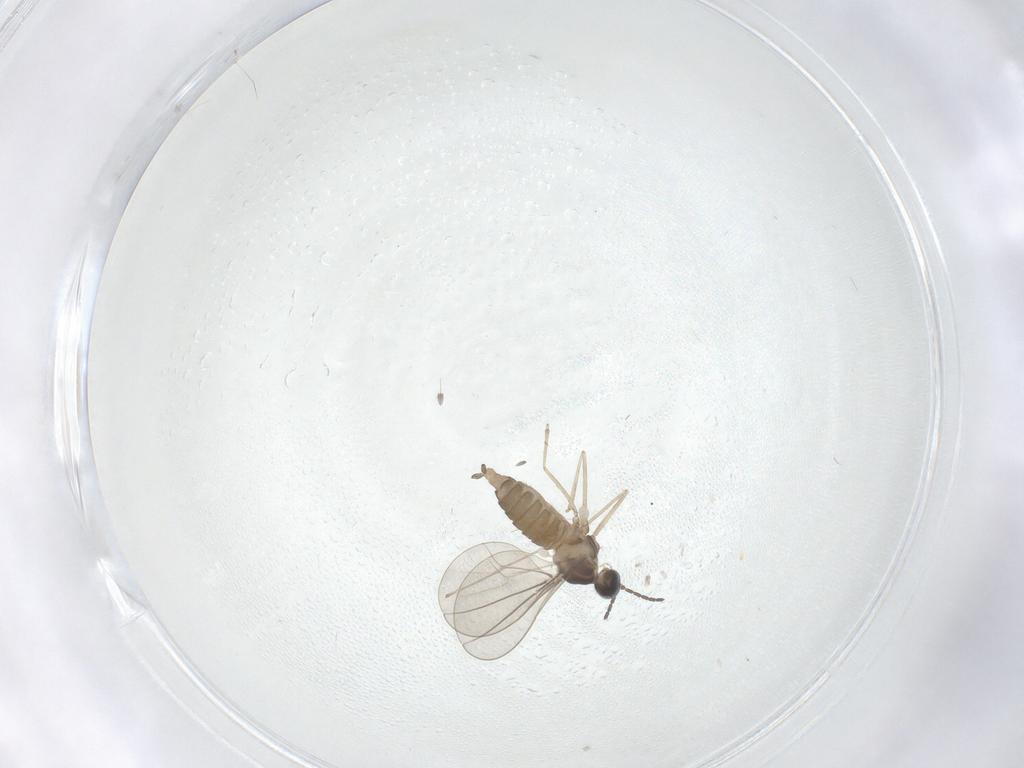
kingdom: Animalia
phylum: Arthropoda
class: Insecta
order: Diptera
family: Cecidomyiidae
